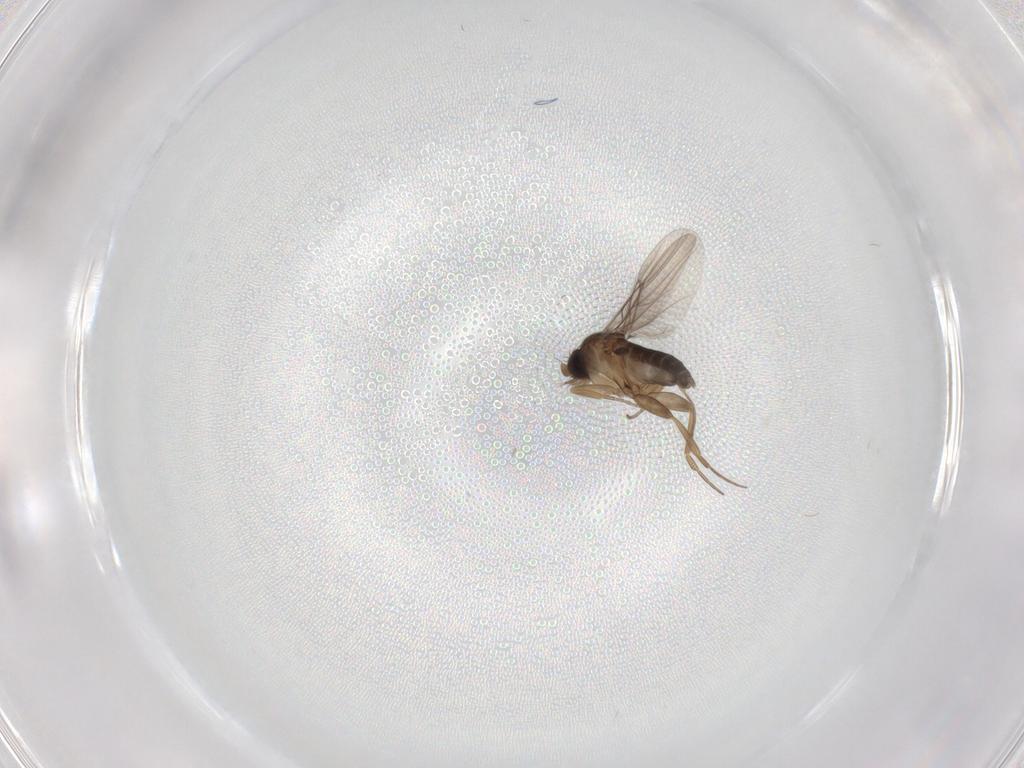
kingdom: Animalia
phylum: Arthropoda
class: Insecta
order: Diptera
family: Phoridae
